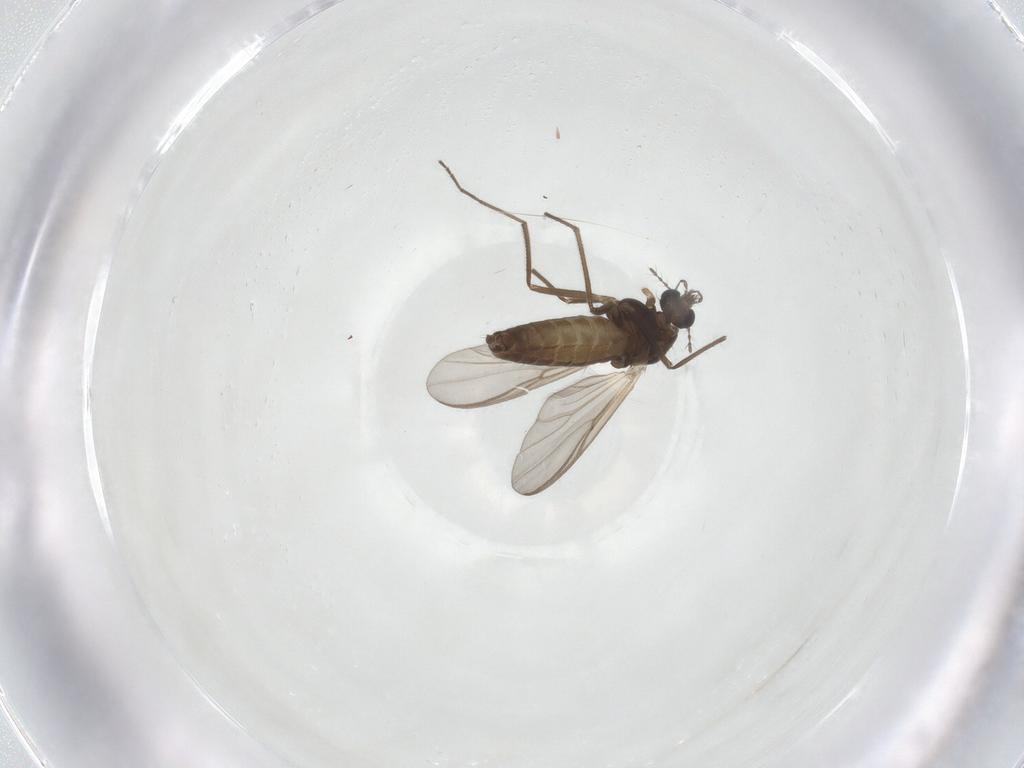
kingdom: Animalia
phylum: Arthropoda
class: Insecta
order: Diptera
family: Chironomidae
